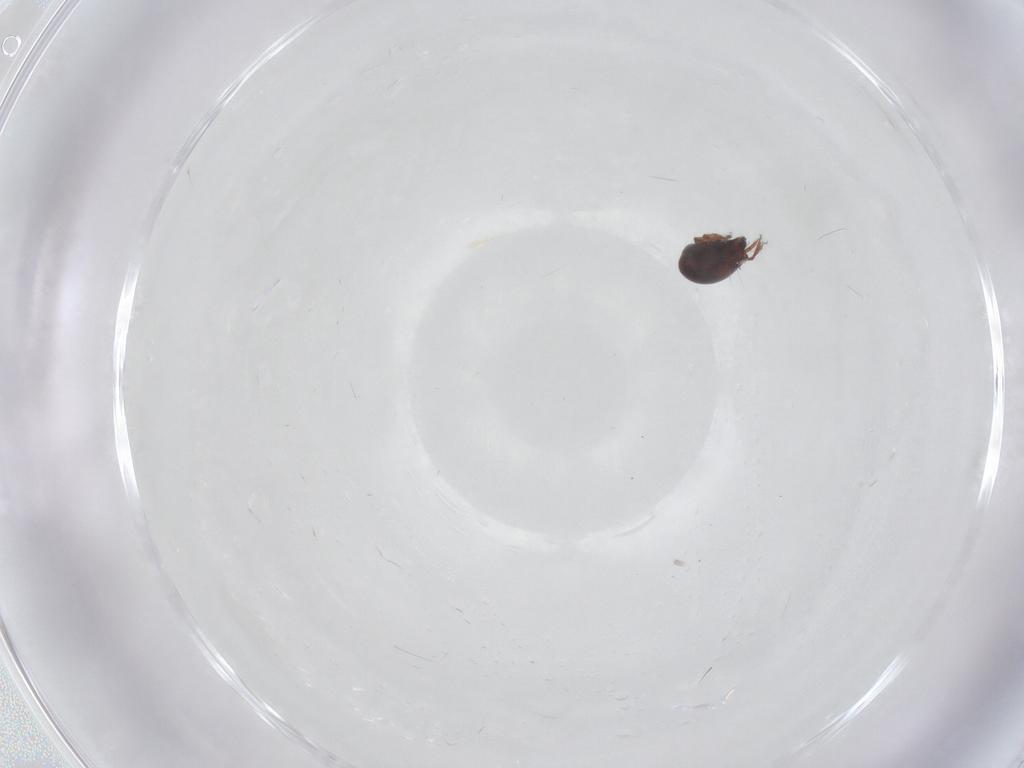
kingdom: Animalia
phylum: Arthropoda
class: Arachnida
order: Sarcoptiformes
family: Ceratozetidae
